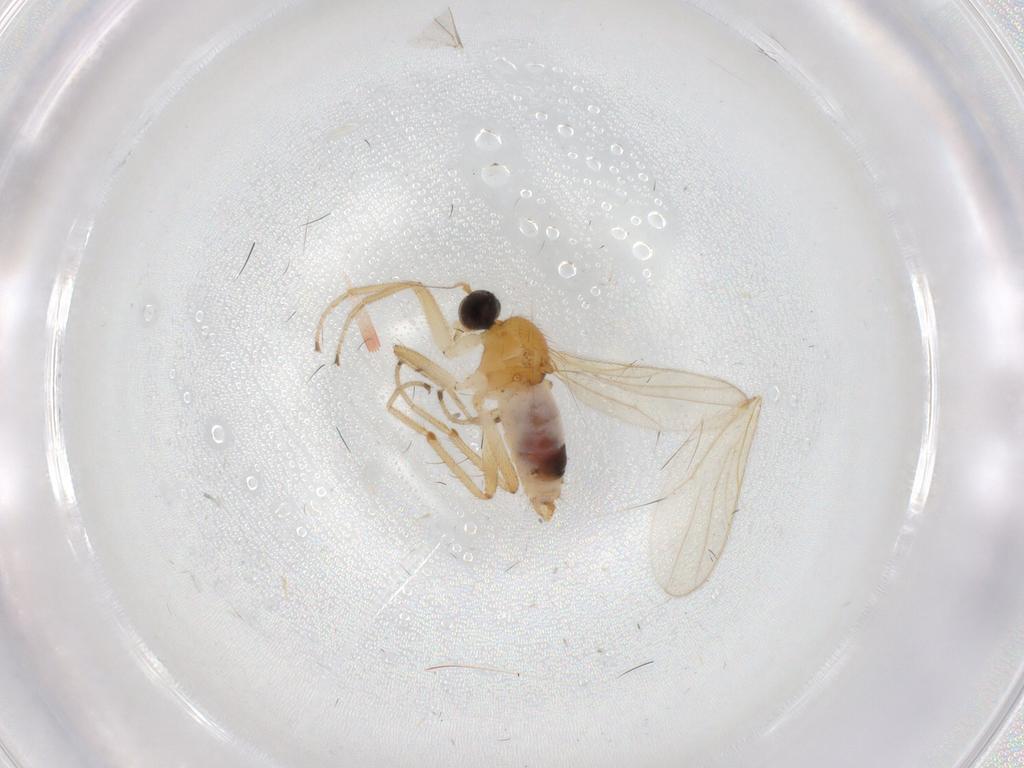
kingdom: Animalia
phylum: Arthropoda
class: Insecta
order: Diptera
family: Hybotidae
